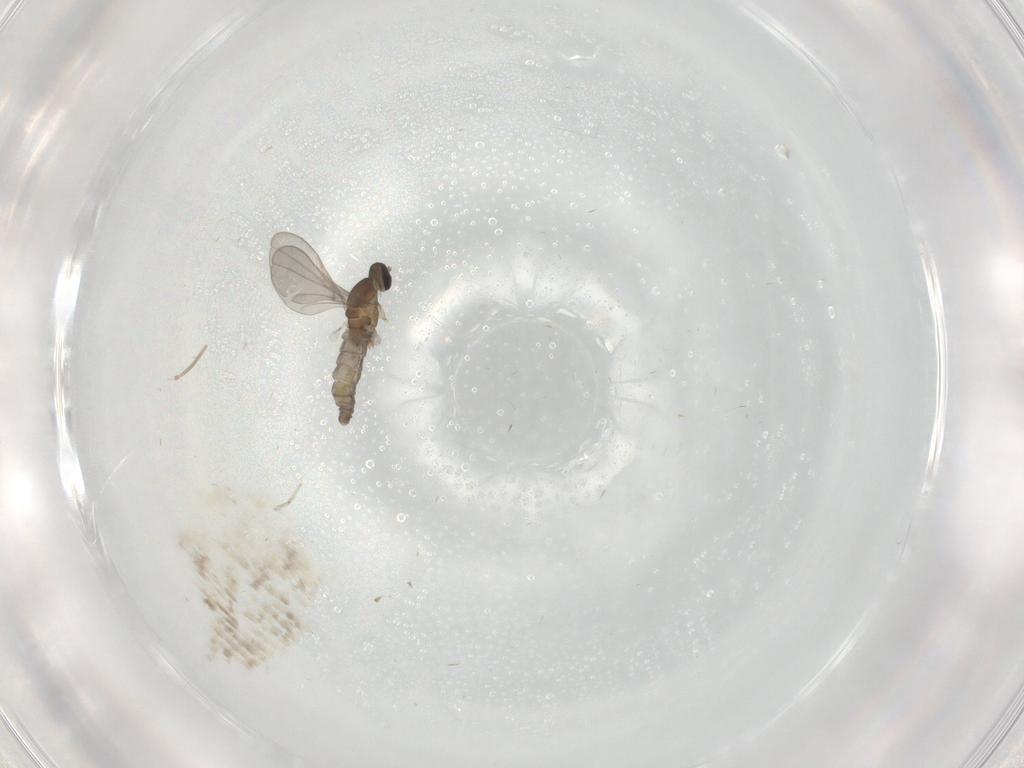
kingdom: Animalia
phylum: Arthropoda
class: Insecta
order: Diptera
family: Cecidomyiidae
